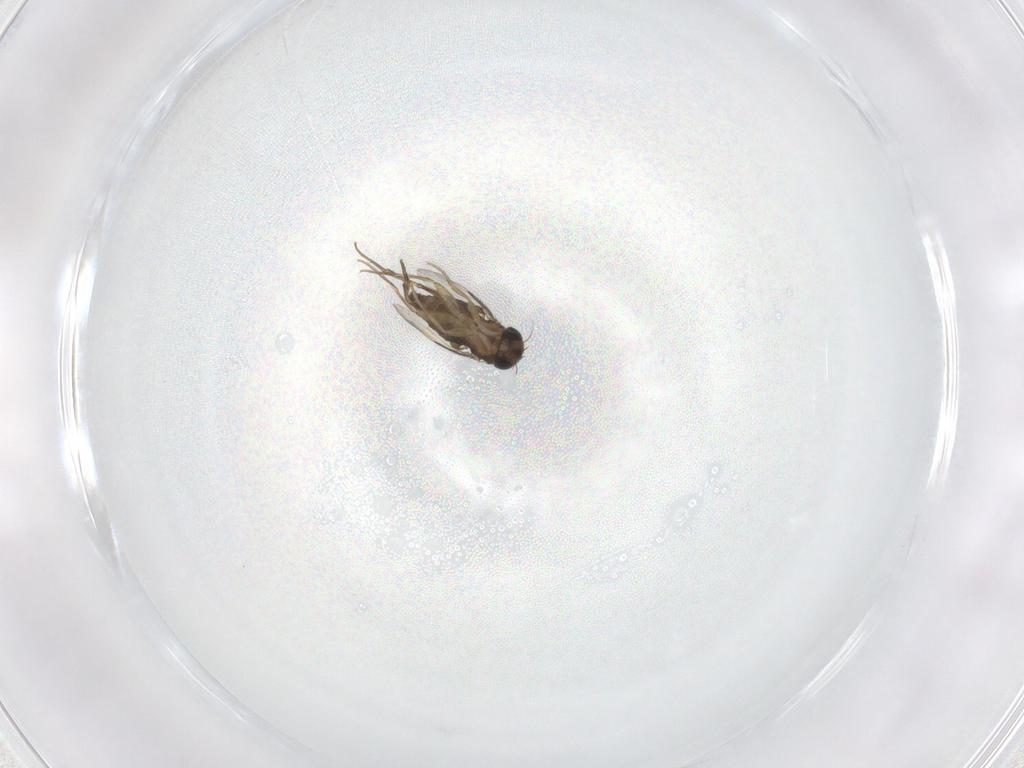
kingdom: Animalia
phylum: Arthropoda
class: Insecta
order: Diptera
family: Phoridae
